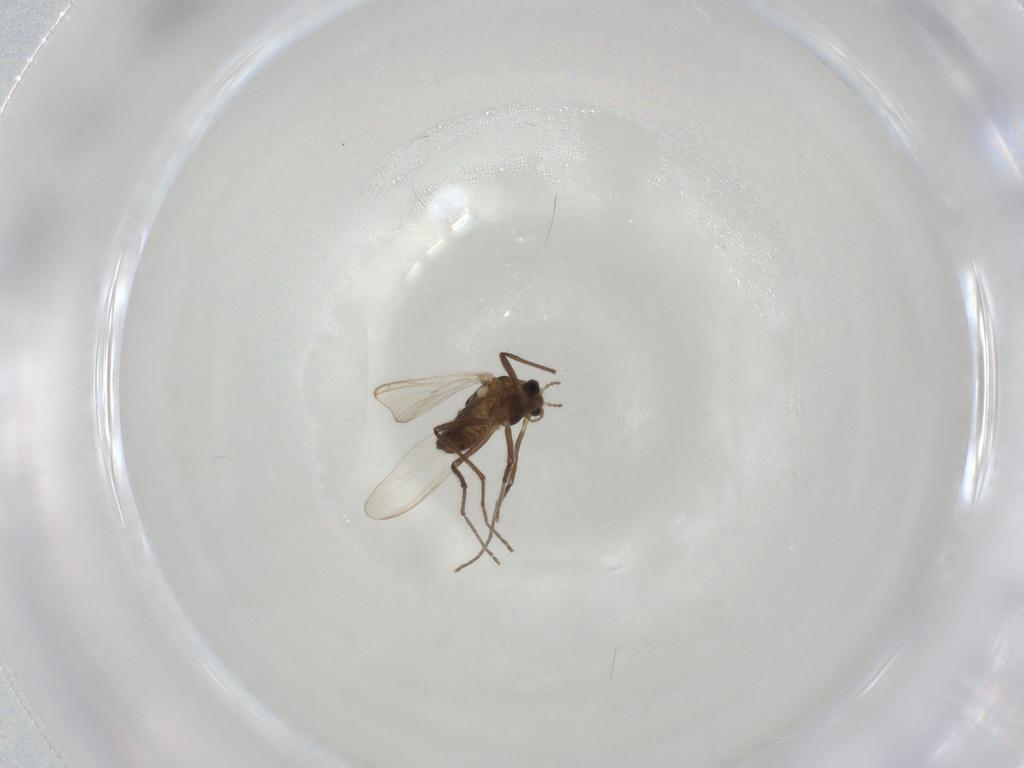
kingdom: Animalia
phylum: Arthropoda
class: Insecta
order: Diptera
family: Chironomidae
